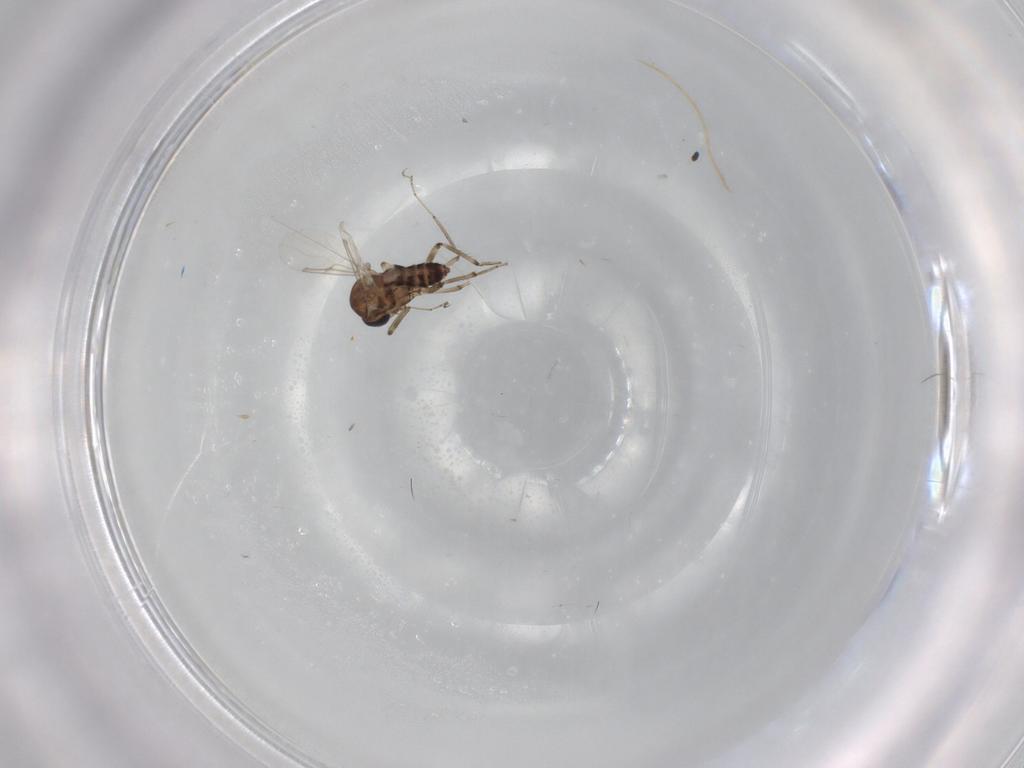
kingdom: Animalia
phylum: Arthropoda
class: Insecta
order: Diptera
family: Ceratopogonidae
